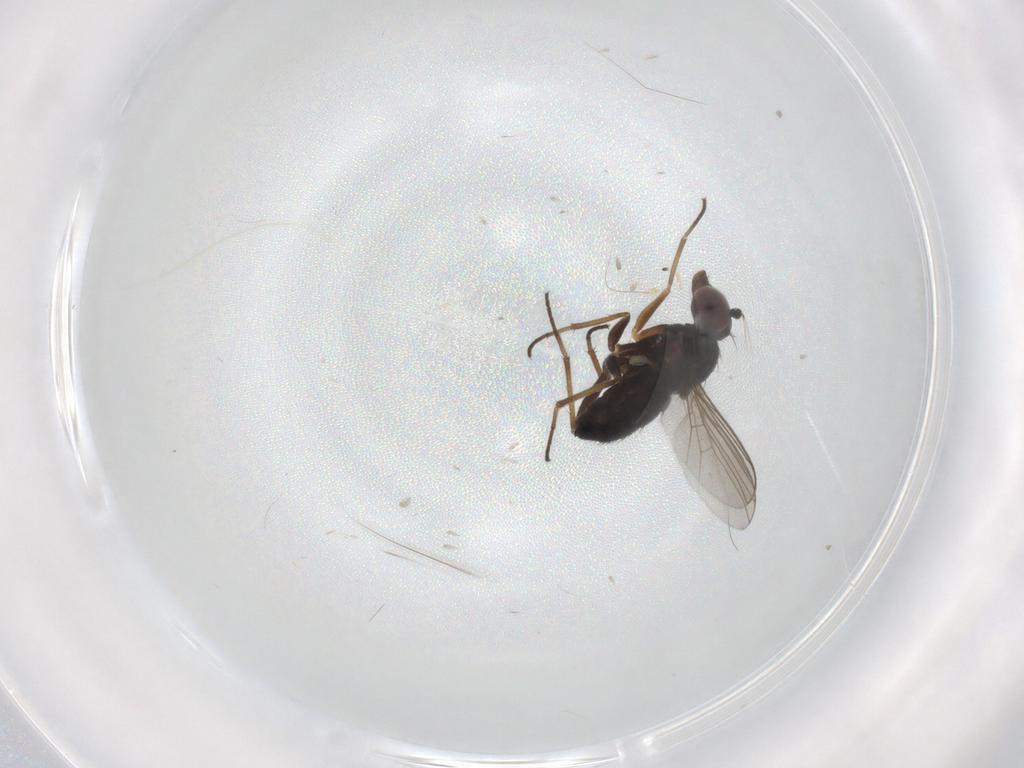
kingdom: Animalia
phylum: Arthropoda
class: Insecta
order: Diptera
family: Dolichopodidae
